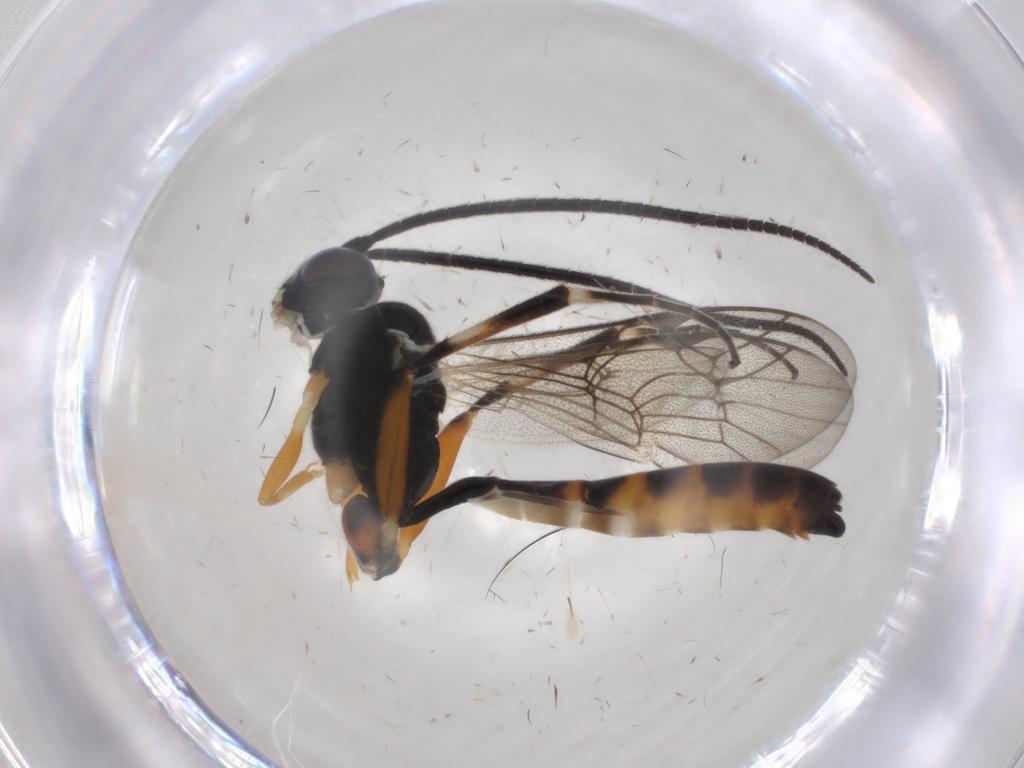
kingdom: Animalia
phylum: Arthropoda
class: Insecta
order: Hymenoptera
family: Ichneumonidae
